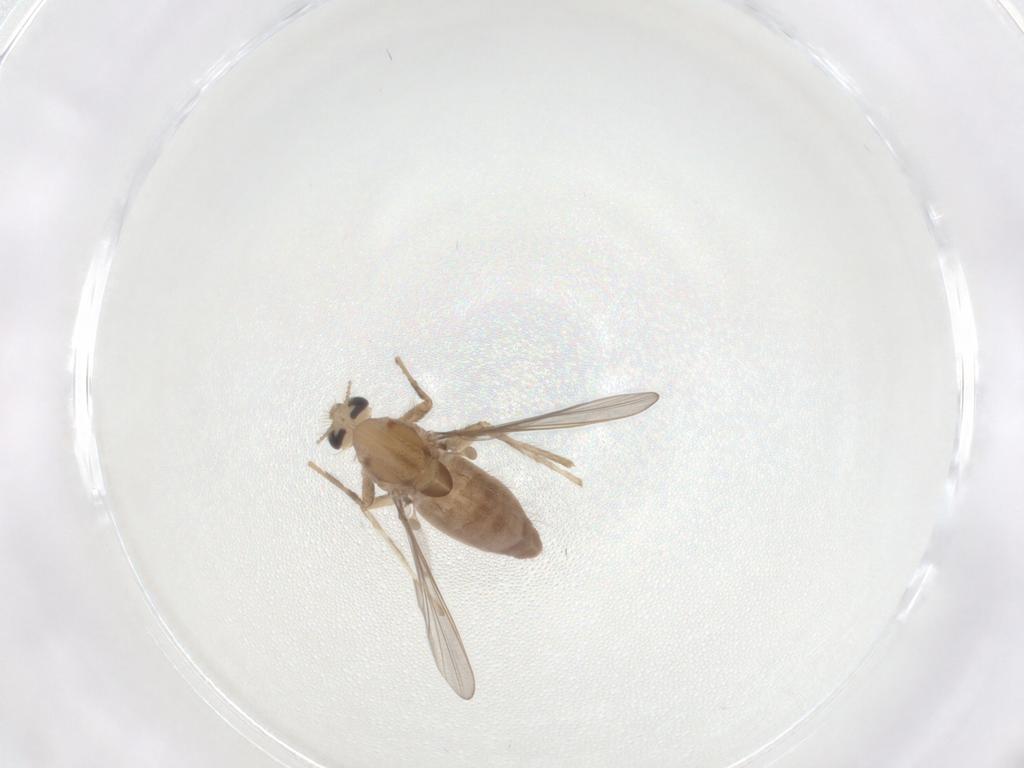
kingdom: Animalia
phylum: Arthropoda
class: Insecta
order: Diptera
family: Chironomidae
